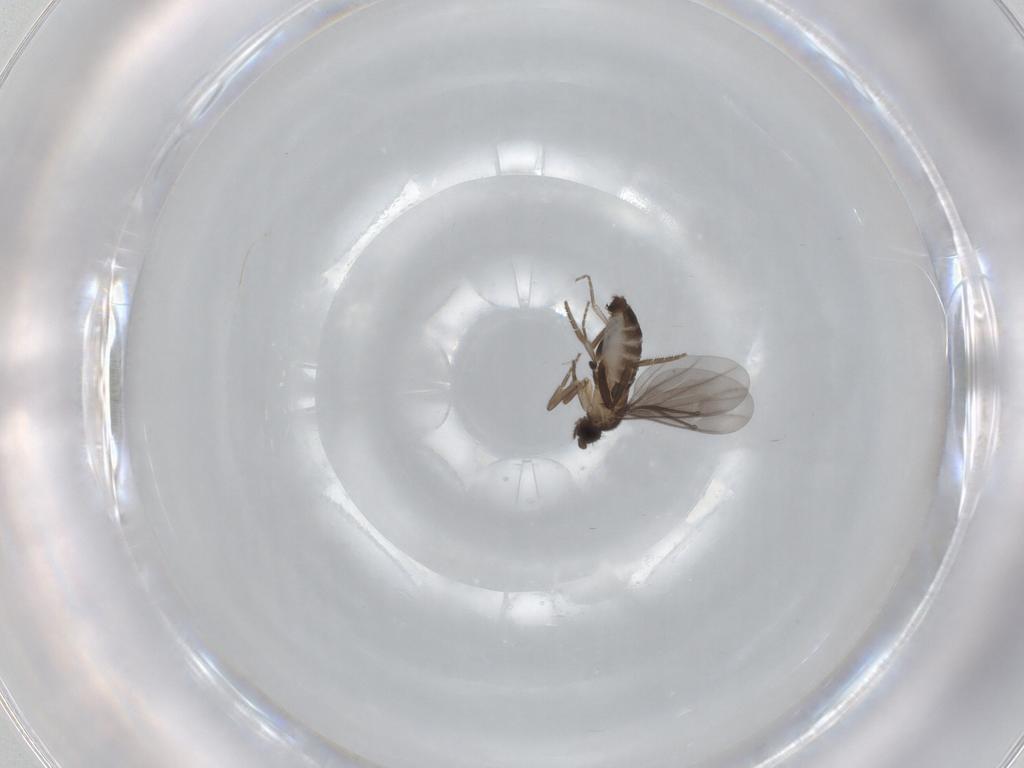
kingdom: Animalia
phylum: Arthropoda
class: Insecta
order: Diptera
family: Phoridae
